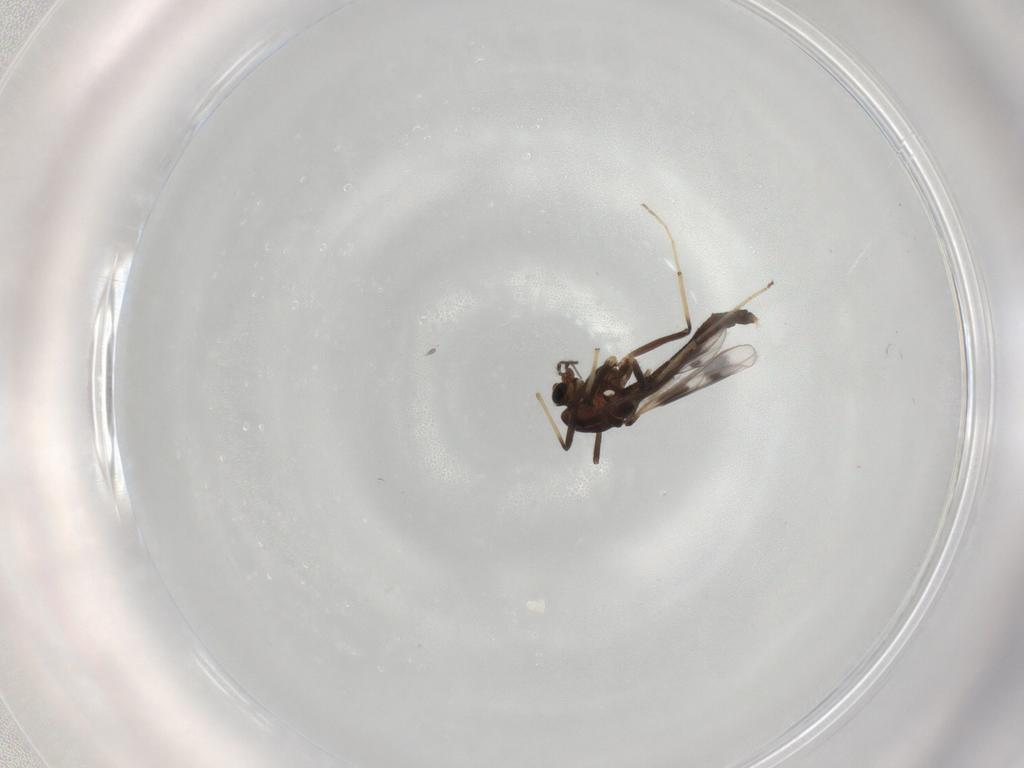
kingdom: Animalia
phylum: Arthropoda
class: Insecta
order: Diptera
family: Chironomidae
